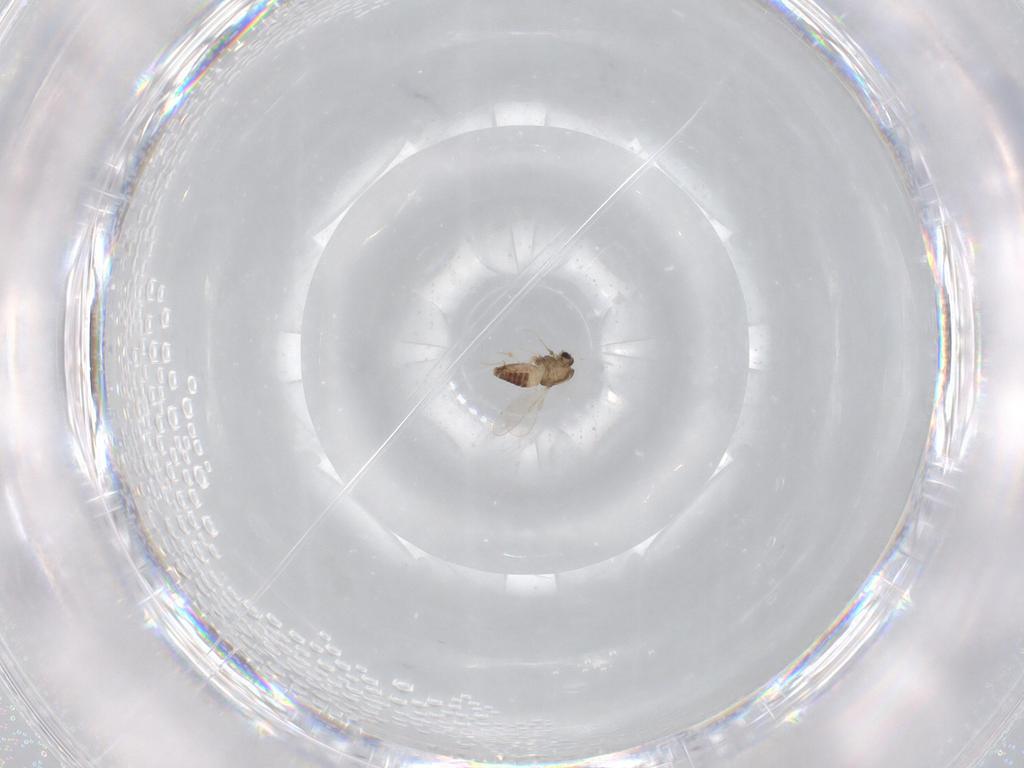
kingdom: Animalia
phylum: Arthropoda
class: Insecta
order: Diptera
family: Chironomidae
